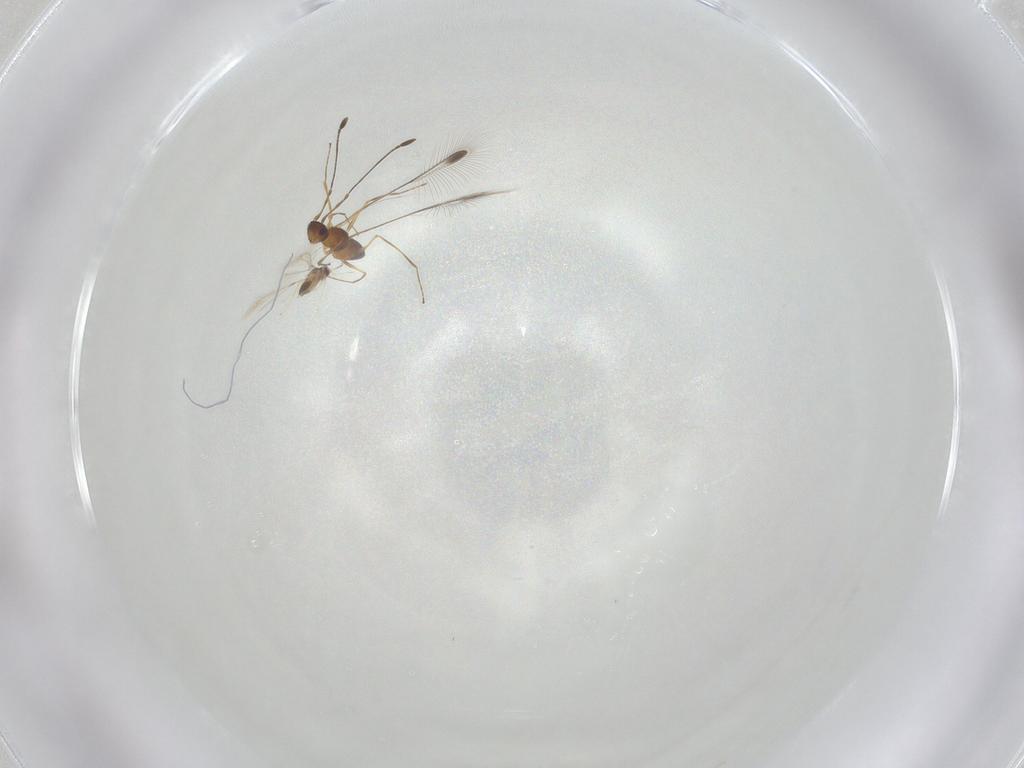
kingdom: Animalia
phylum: Arthropoda
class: Insecta
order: Hymenoptera
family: Mymaridae
